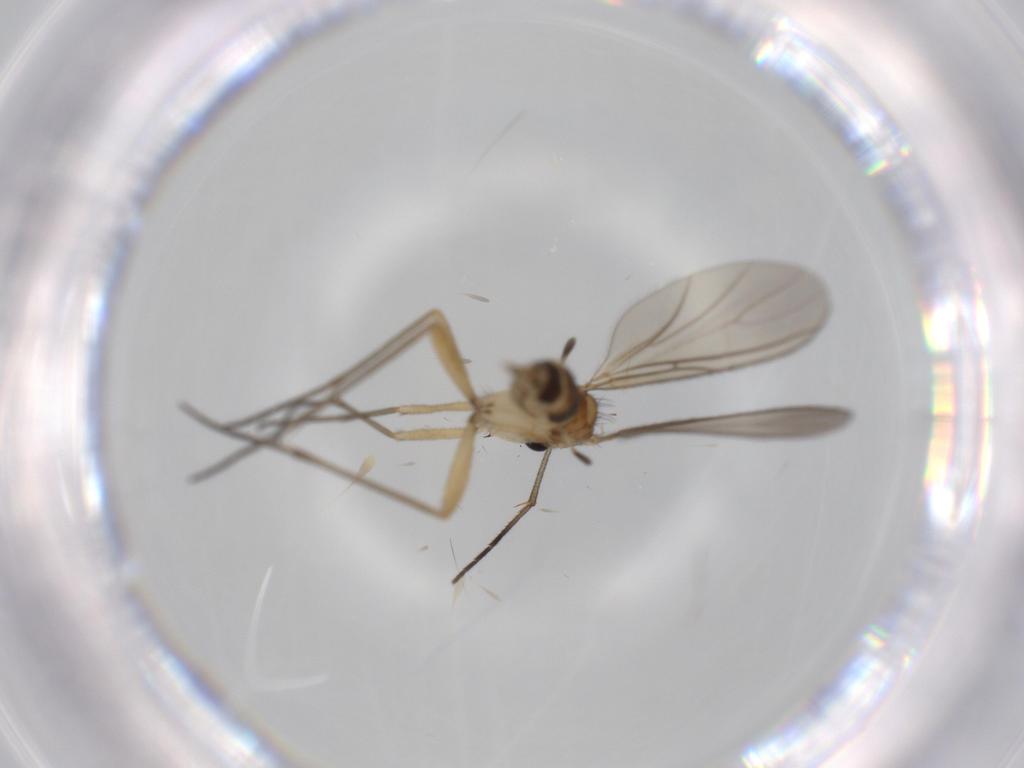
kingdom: Animalia
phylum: Arthropoda
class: Insecta
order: Diptera
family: Sciaridae
